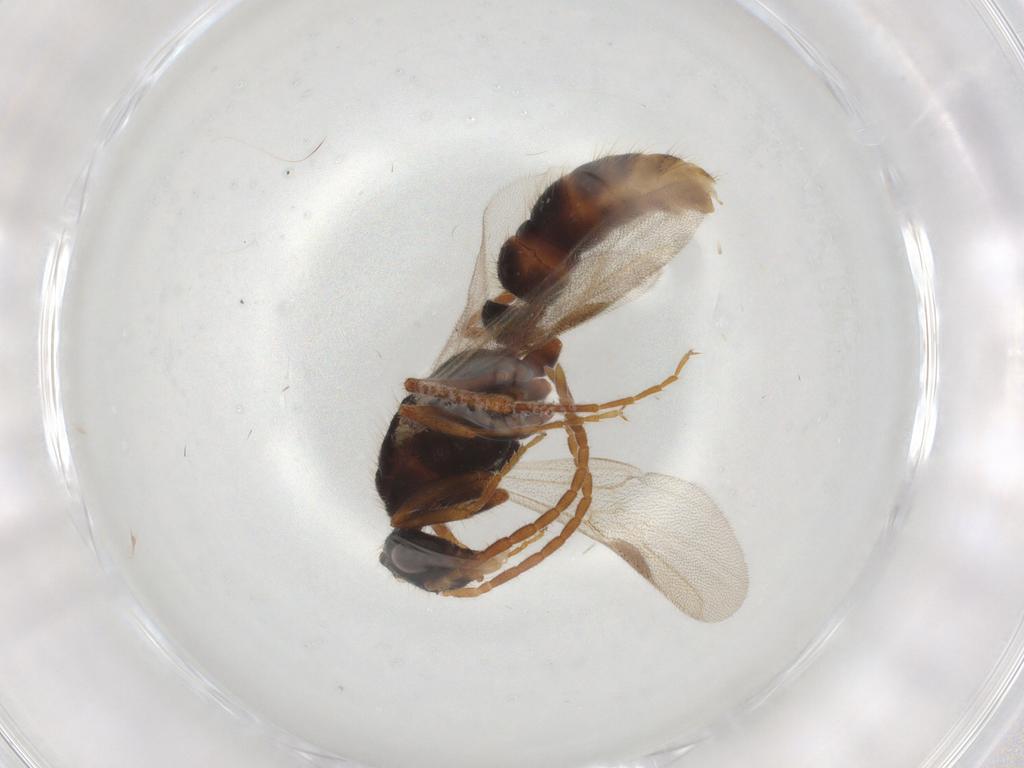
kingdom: Animalia
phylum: Arthropoda
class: Insecta
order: Hymenoptera
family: Formicidae
